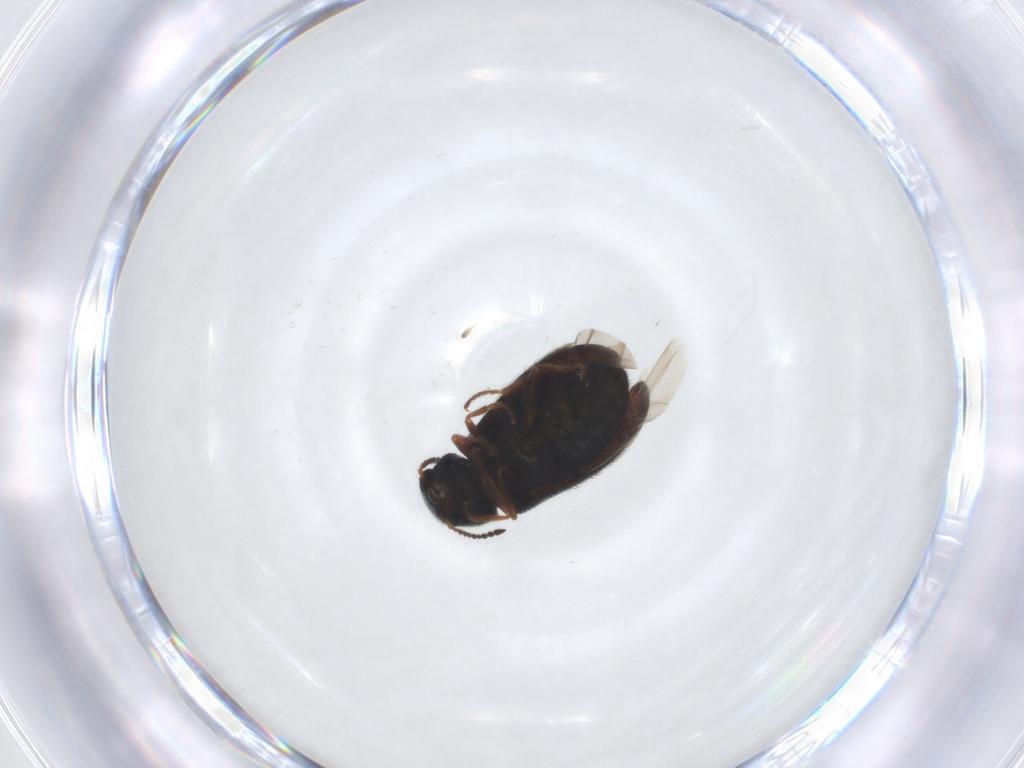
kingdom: Animalia
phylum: Arthropoda
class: Insecta
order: Coleoptera
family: Melyridae
